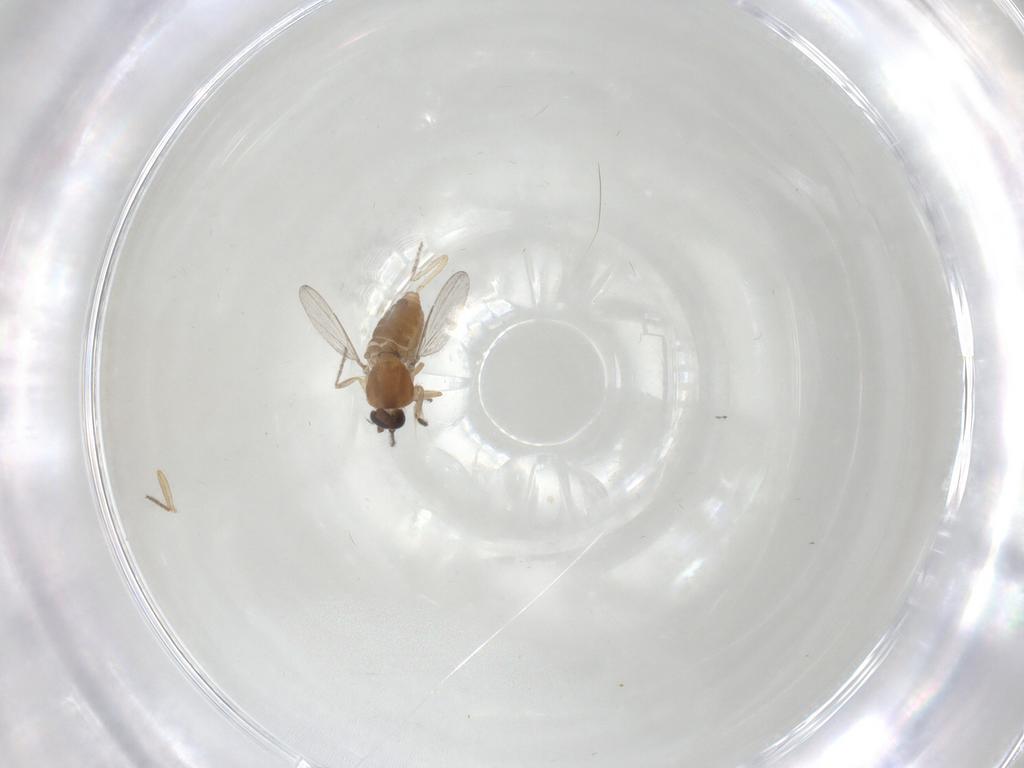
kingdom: Animalia
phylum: Arthropoda
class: Insecta
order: Diptera
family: Ceratopogonidae
